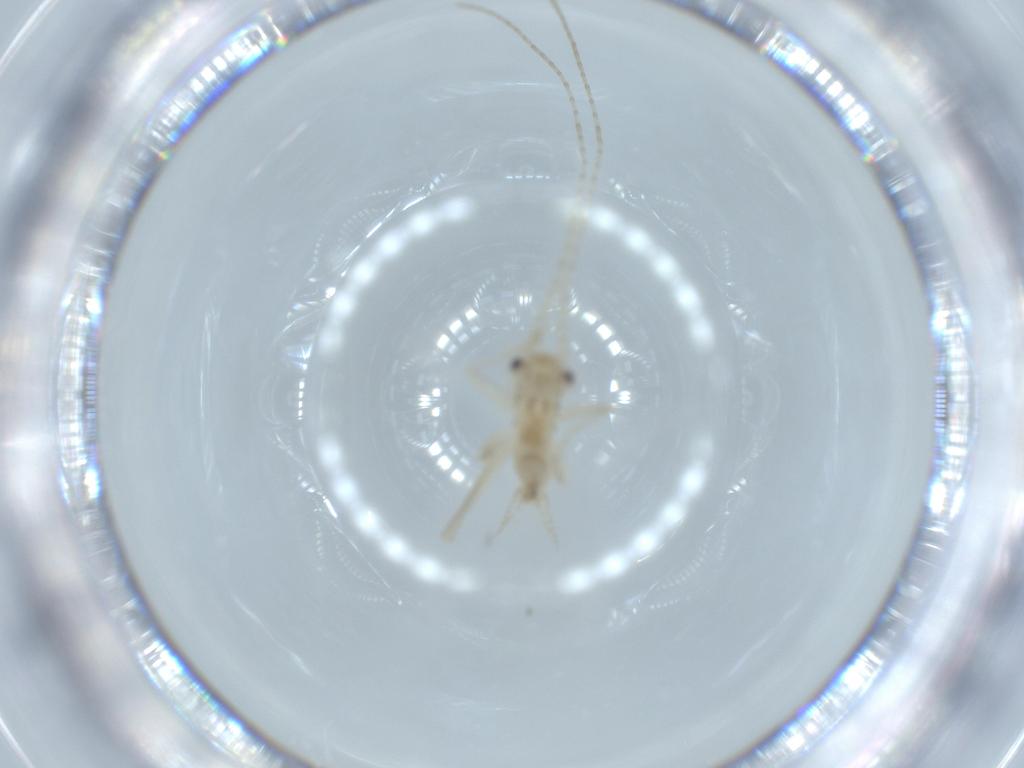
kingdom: Animalia
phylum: Arthropoda
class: Insecta
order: Orthoptera
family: Trigonidiidae
